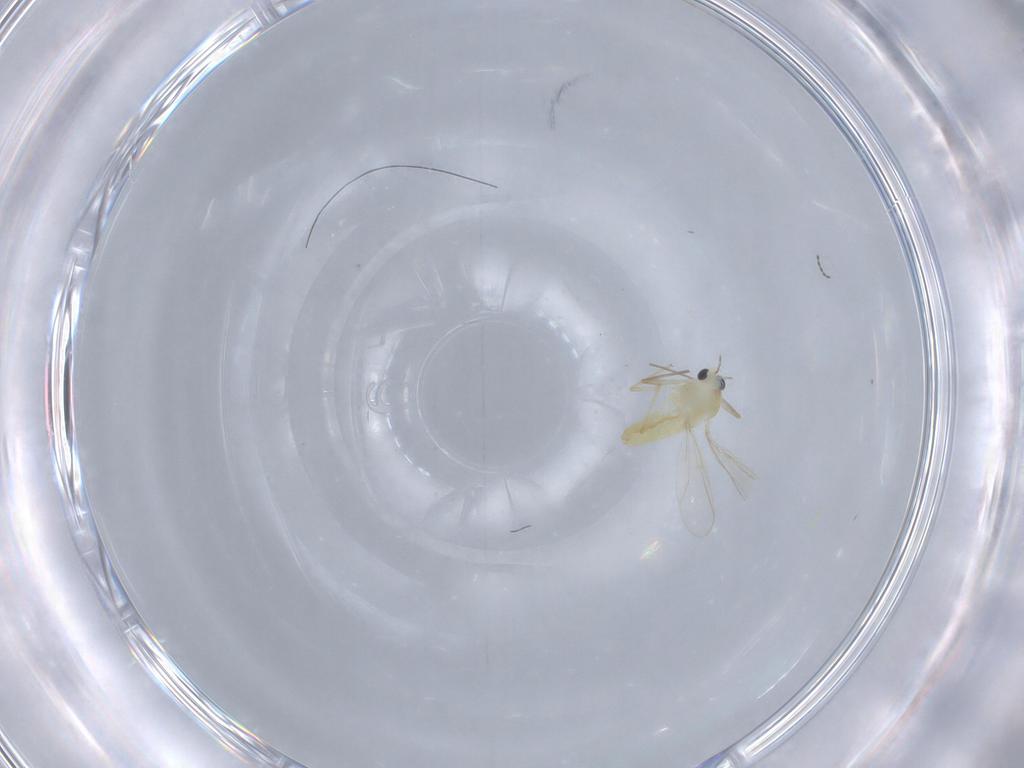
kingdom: Animalia
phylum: Arthropoda
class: Insecta
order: Diptera
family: Chironomidae
